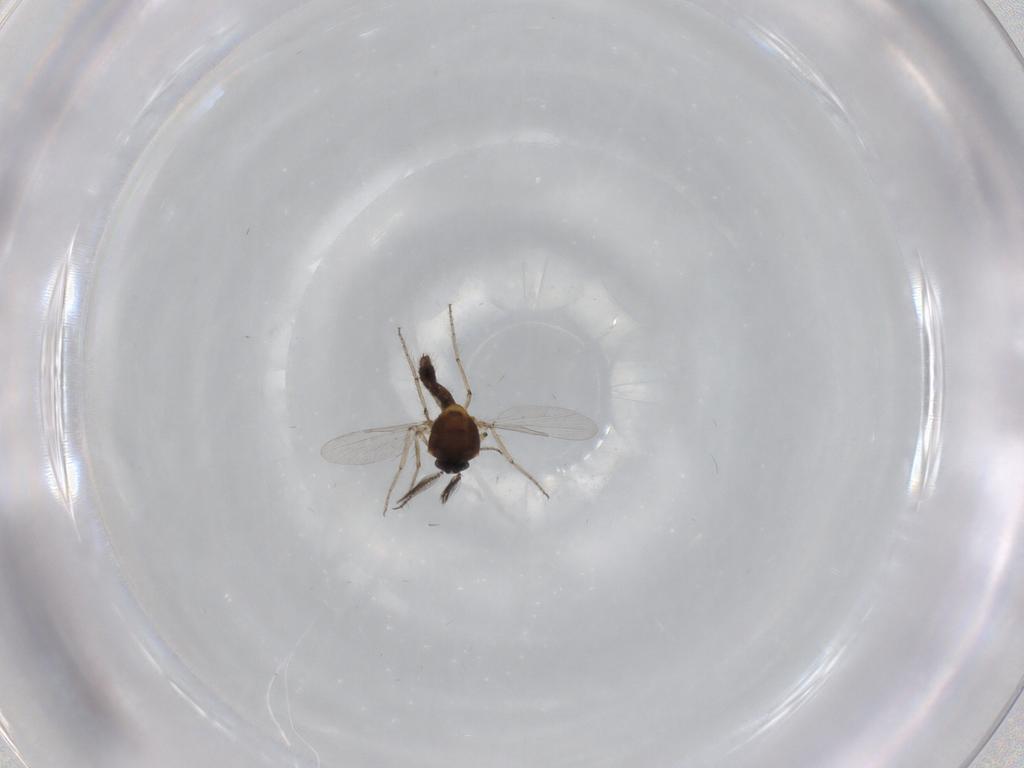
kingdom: Animalia
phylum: Arthropoda
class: Insecta
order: Diptera
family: Ceratopogonidae
